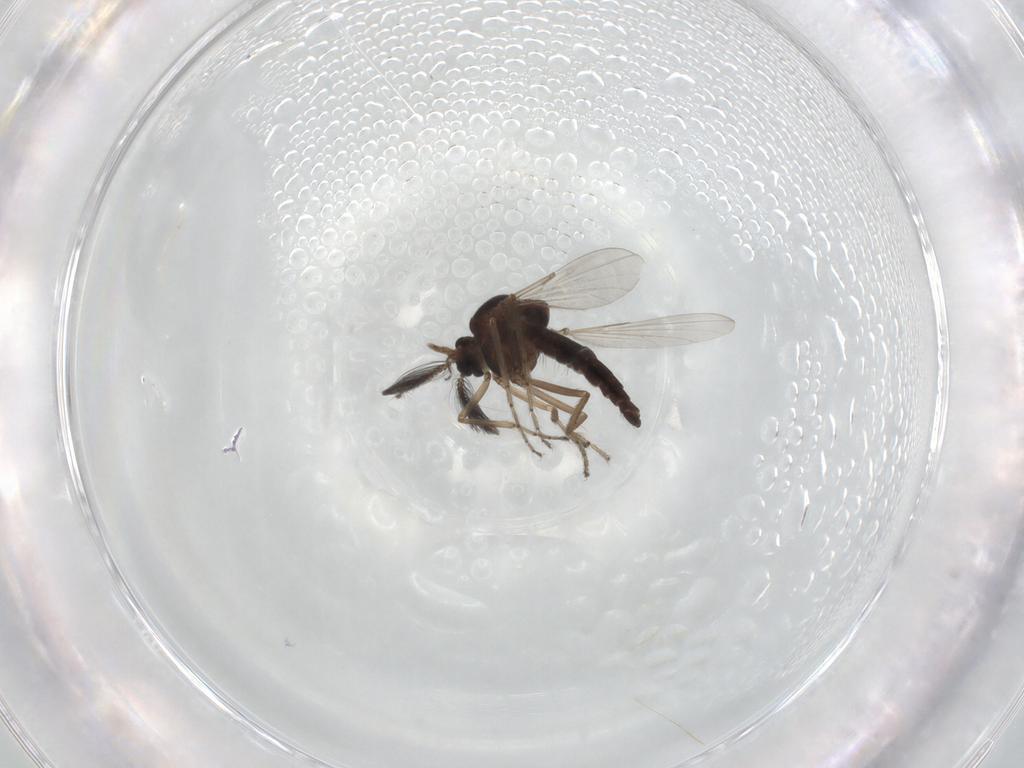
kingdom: Animalia
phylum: Arthropoda
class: Insecta
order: Diptera
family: Ceratopogonidae
